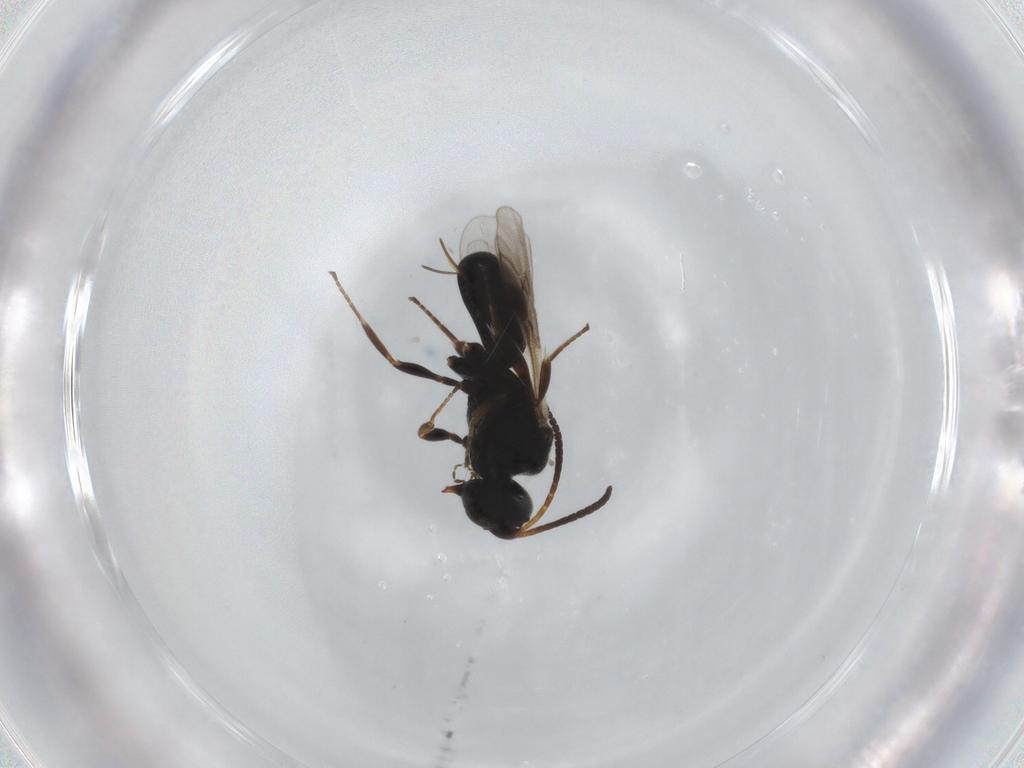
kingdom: Animalia
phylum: Arthropoda
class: Insecta
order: Hymenoptera
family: Braconidae
